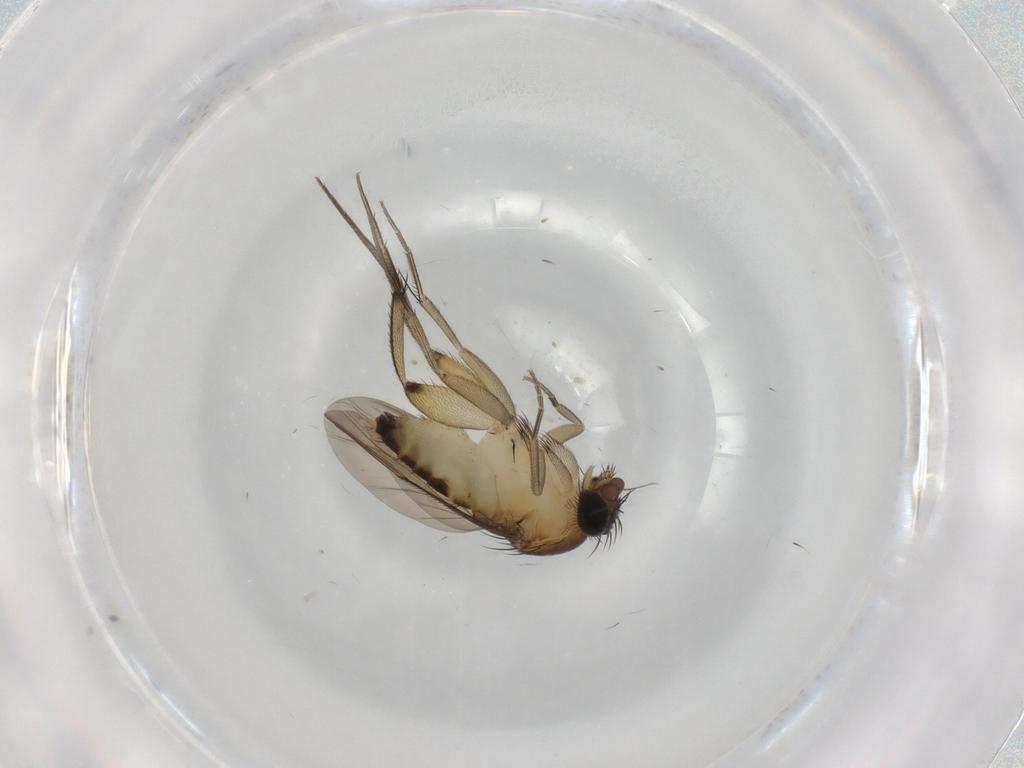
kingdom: Animalia
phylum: Arthropoda
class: Insecta
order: Diptera
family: Phoridae
